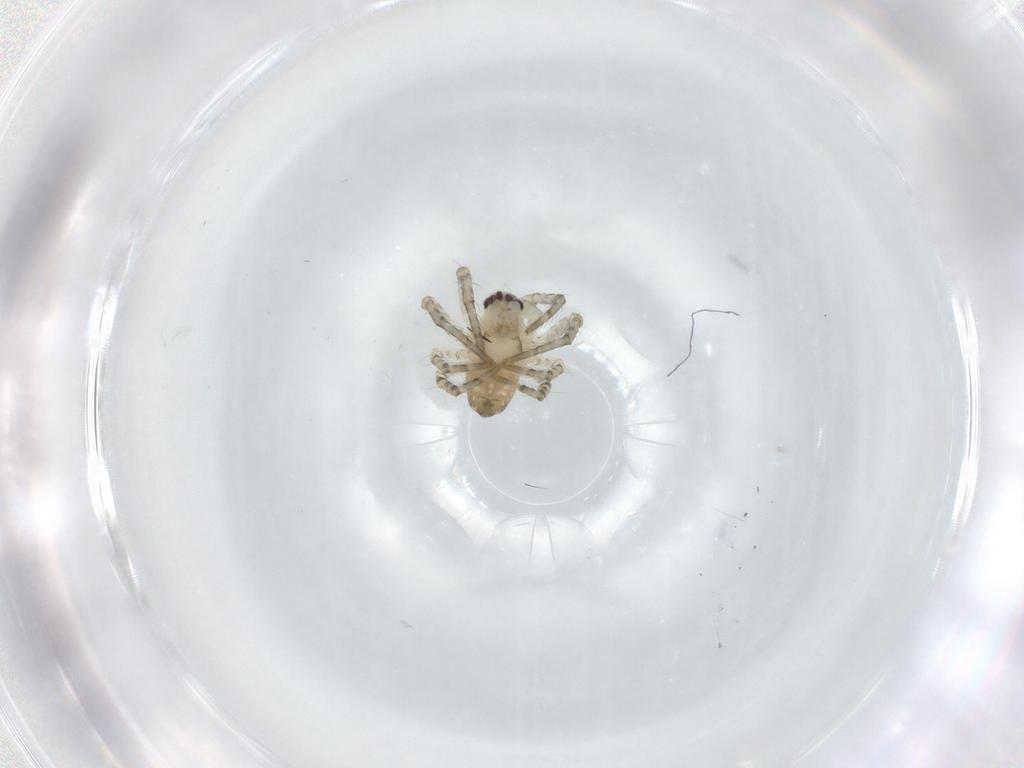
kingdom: Animalia
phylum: Arthropoda
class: Arachnida
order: Araneae
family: Araneidae
